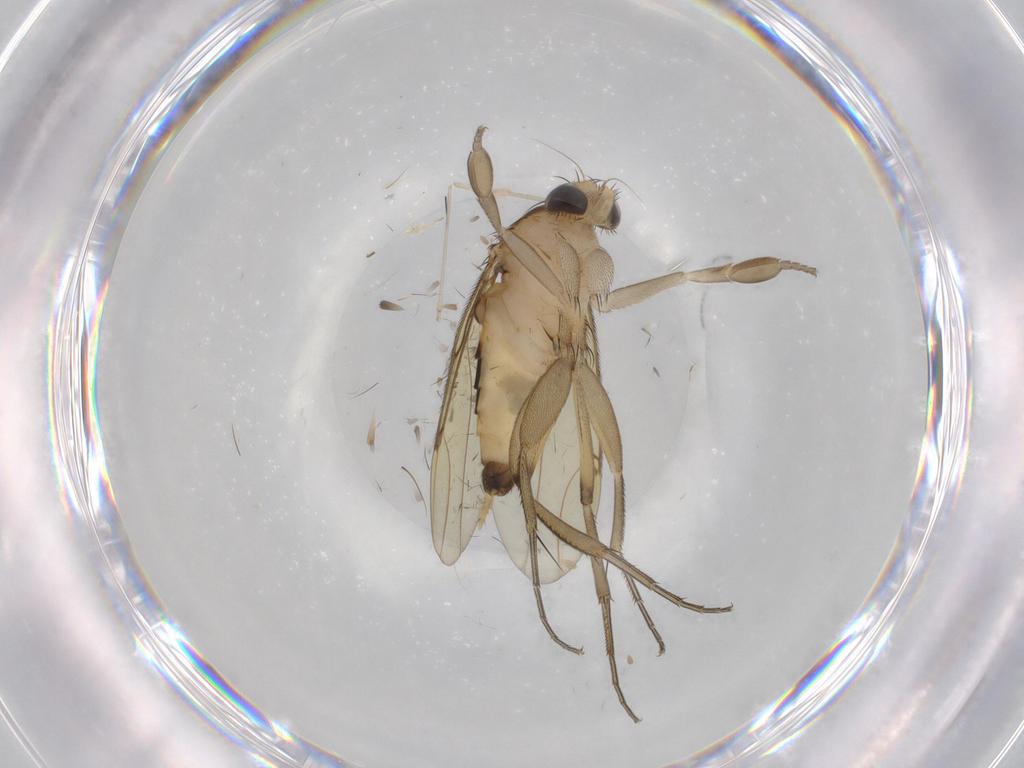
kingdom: Animalia
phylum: Arthropoda
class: Insecta
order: Diptera
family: Phoridae
